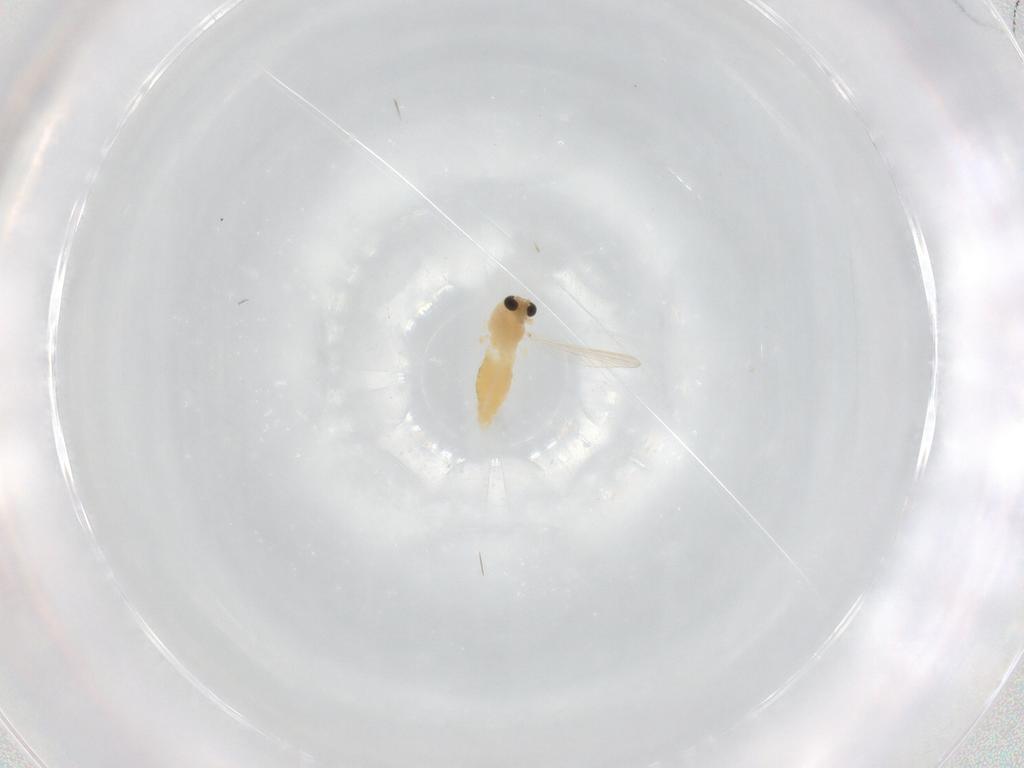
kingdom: Animalia
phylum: Arthropoda
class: Insecta
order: Diptera
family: Chironomidae
